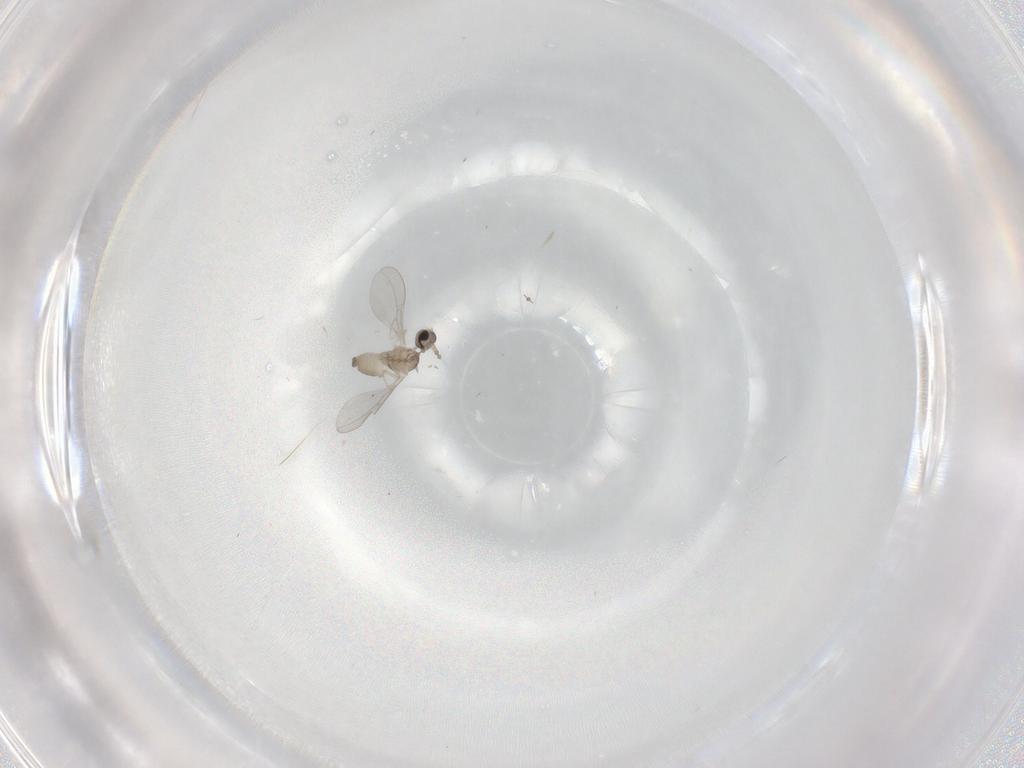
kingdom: Animalia
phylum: Arthropoda
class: Insecta
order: Diptera
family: Cecidomyiidae
